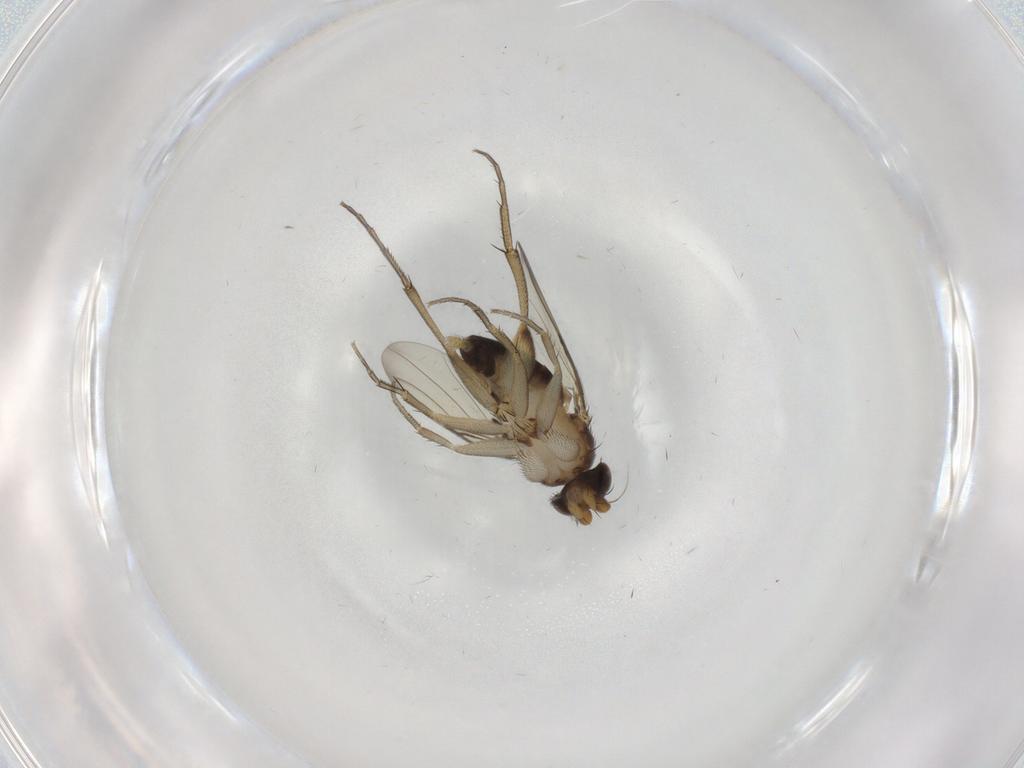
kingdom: Animalia
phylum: Arthropoda
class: Insecta
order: Diptera
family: Phoridae
